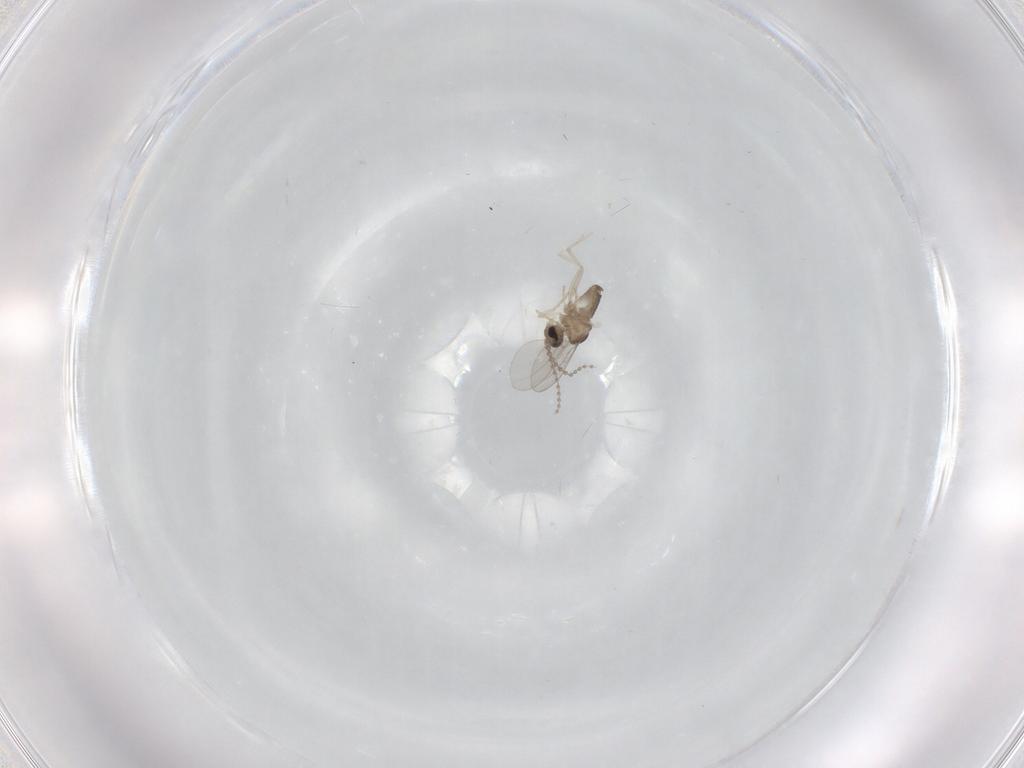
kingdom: Animalia
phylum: Arthropoda
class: Insecta
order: Diptera
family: Cecidomyiidae
